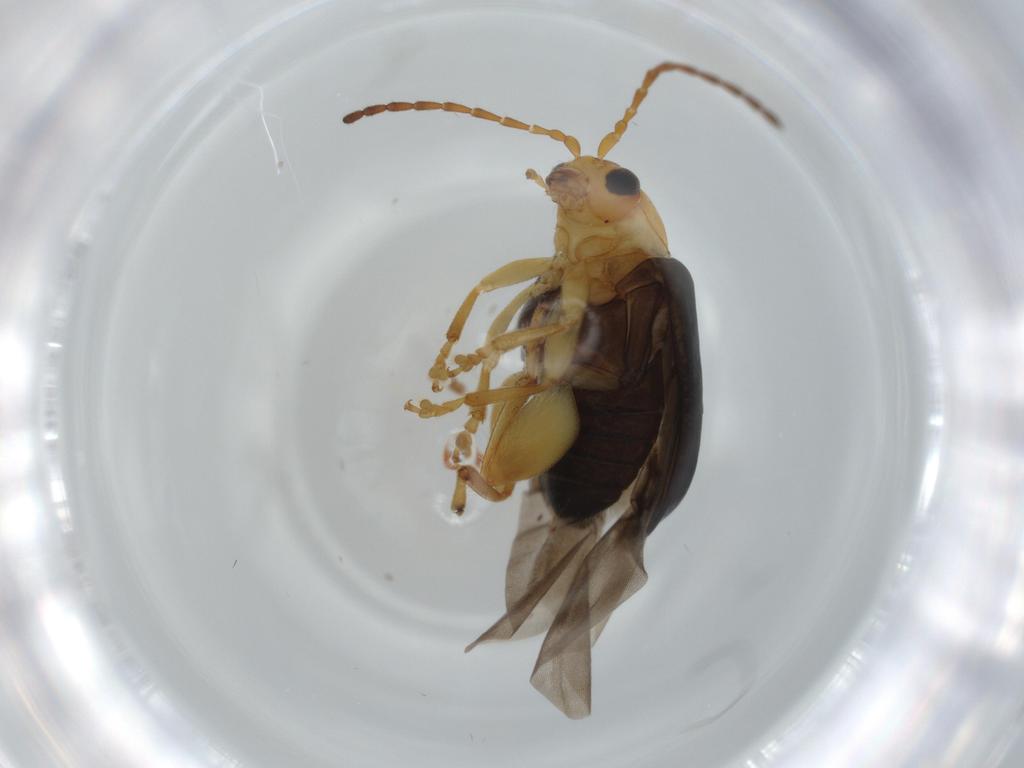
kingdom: Animalia
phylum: Arthropoda
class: Insecta
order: Coleoptera
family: Chrysomelidae
